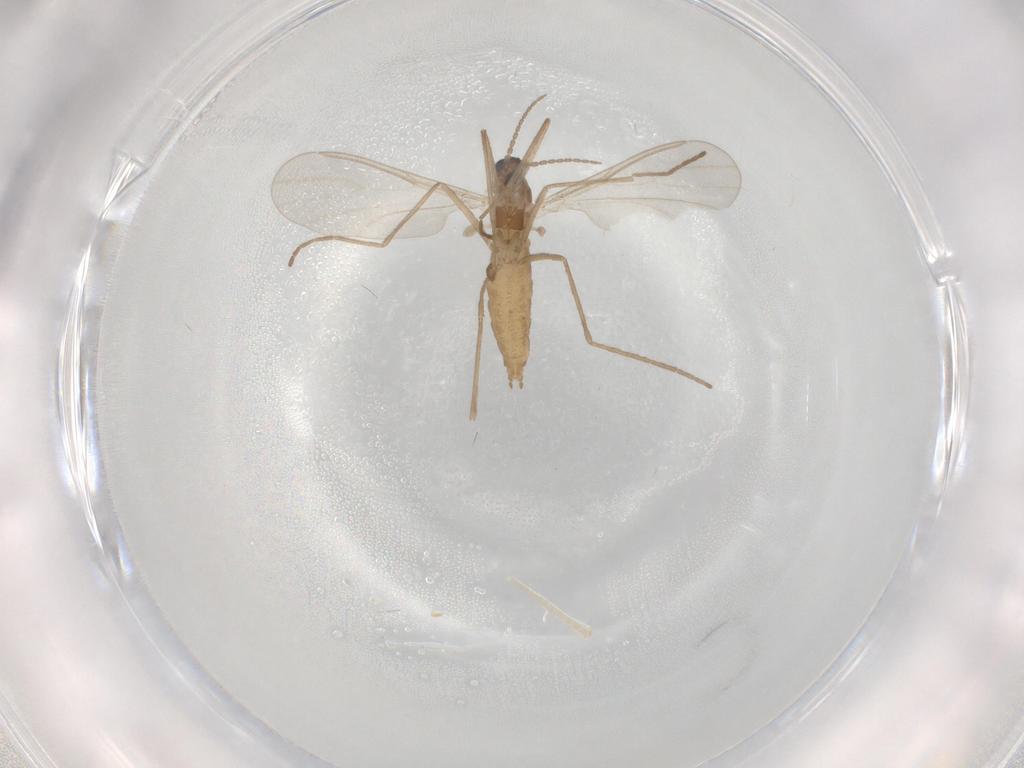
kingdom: Animalia
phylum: Arthropoda
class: Insecta
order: Diptera
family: Cecidomyiidae
